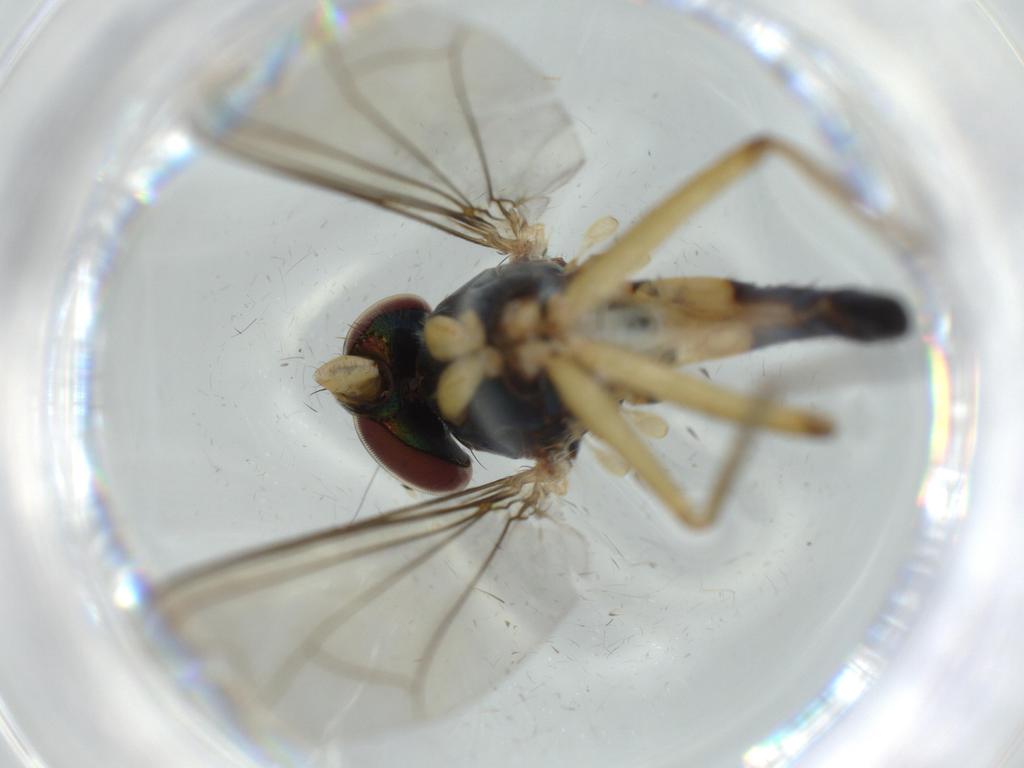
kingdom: Animalia
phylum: Arthropoda
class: Insecta
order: Diptera
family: Dolichopodidae
